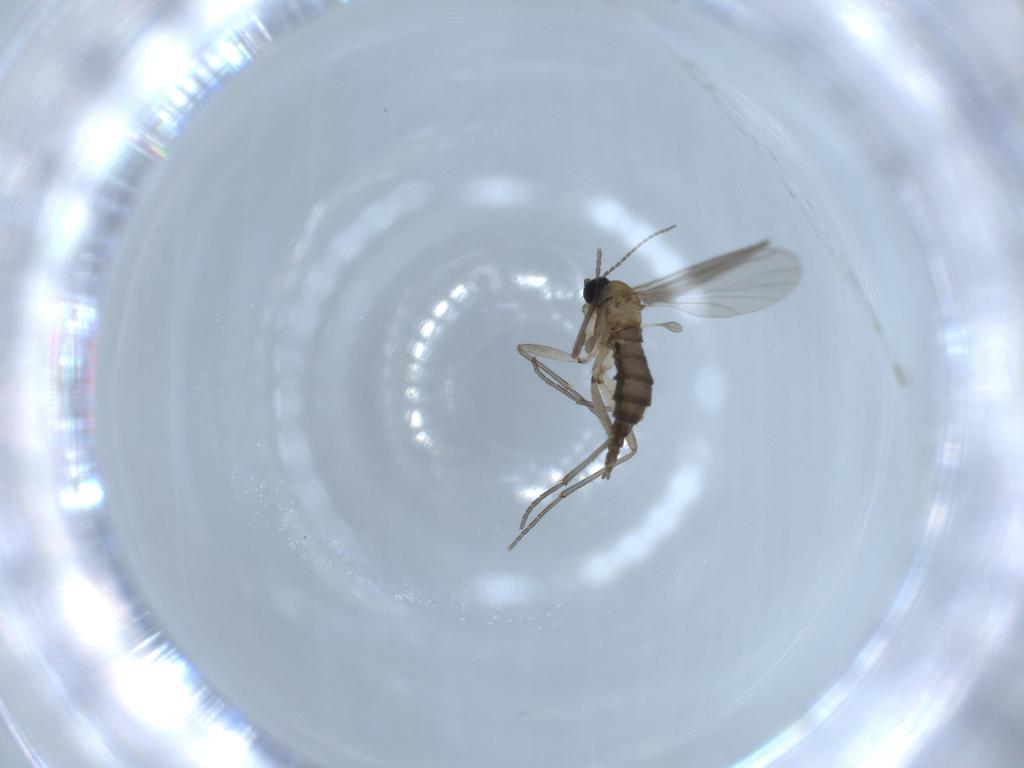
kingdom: Animalia
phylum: Arthropoda
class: Insecta
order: Diptera
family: Sciaridae
